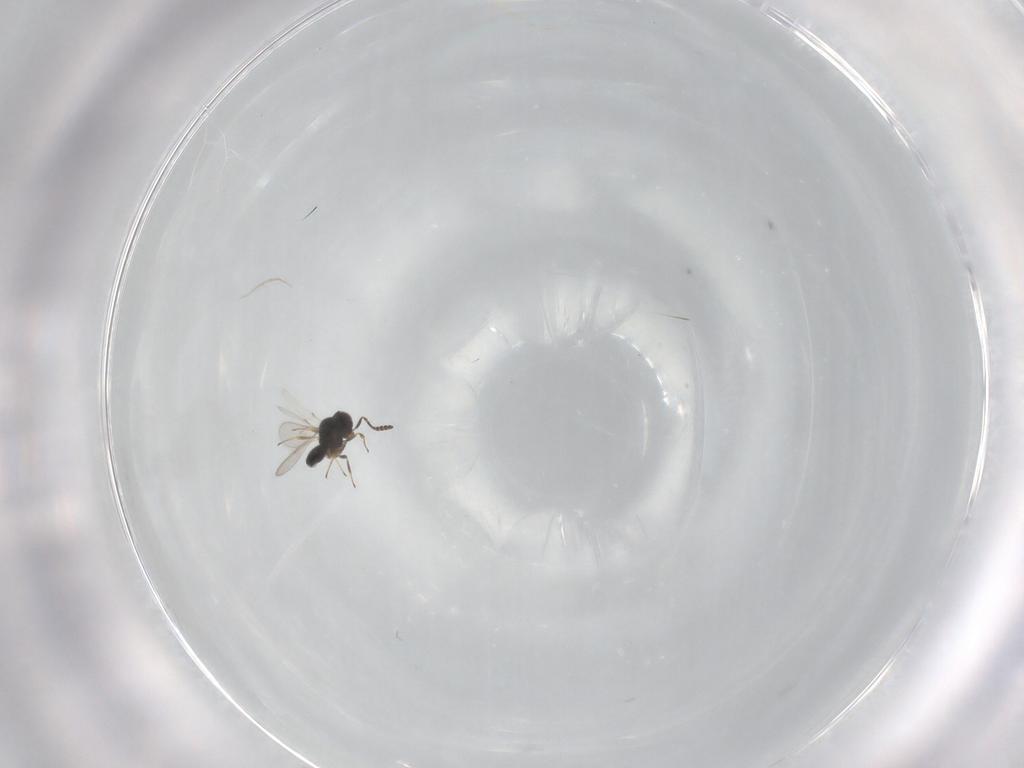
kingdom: Animalia
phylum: Arthropoda
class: Insecta
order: Hymenoptera
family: Scelionidae
